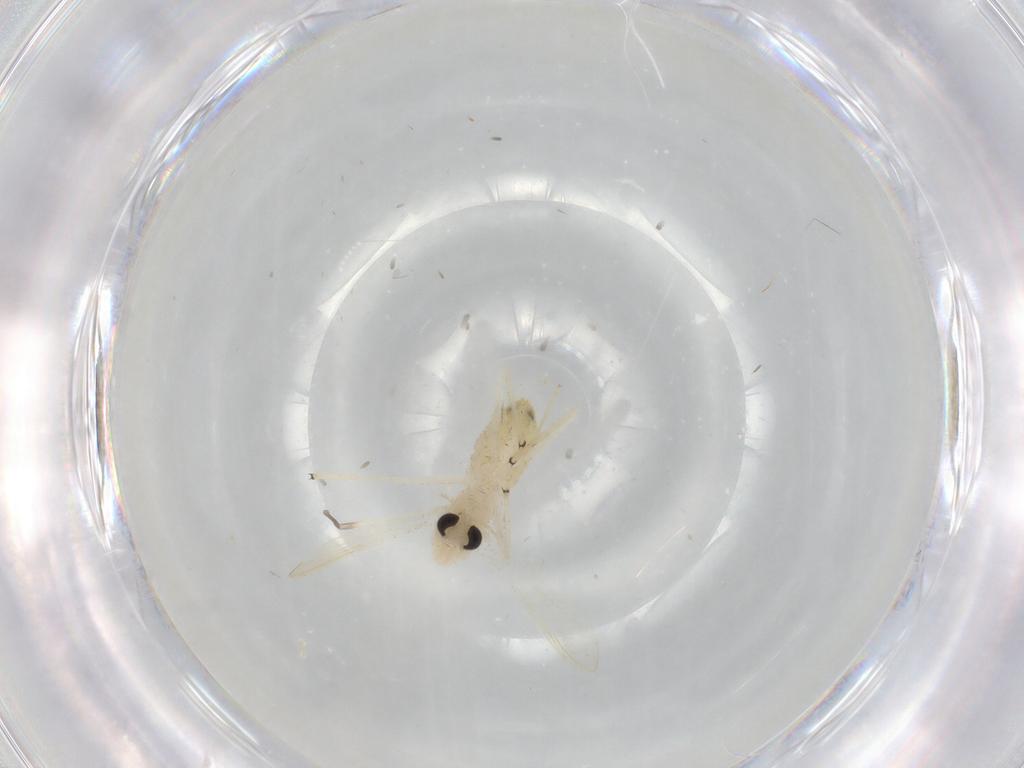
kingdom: Animalia
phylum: Arthropoda
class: Insecta
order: Diptera
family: Chironomidae
